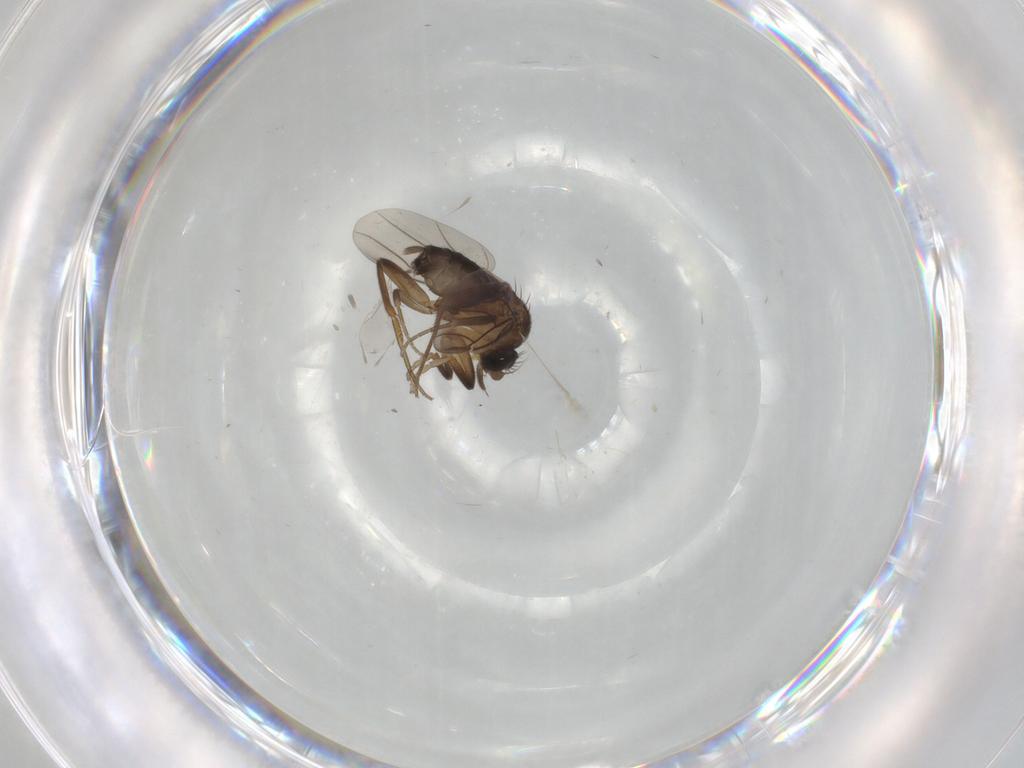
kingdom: Animalia
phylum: Arthropoda
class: Insecta
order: Diptera
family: Phoridae
